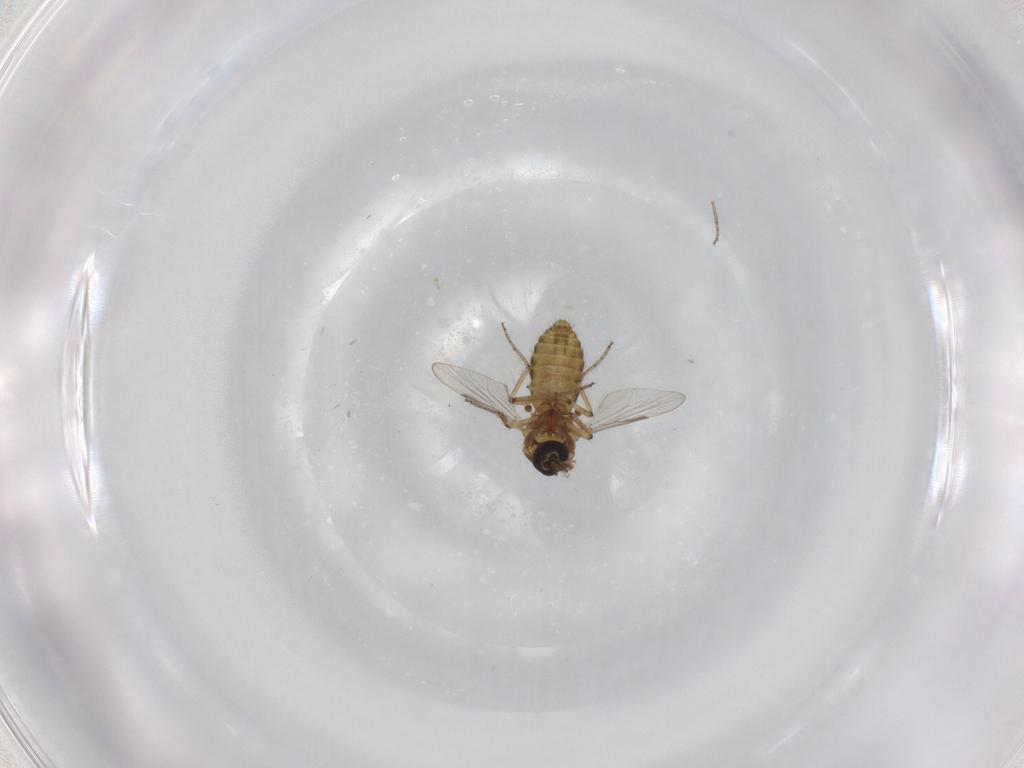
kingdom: Animalia
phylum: Arthropoda
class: Insecta
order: Diptera
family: Ceratopogonidae
